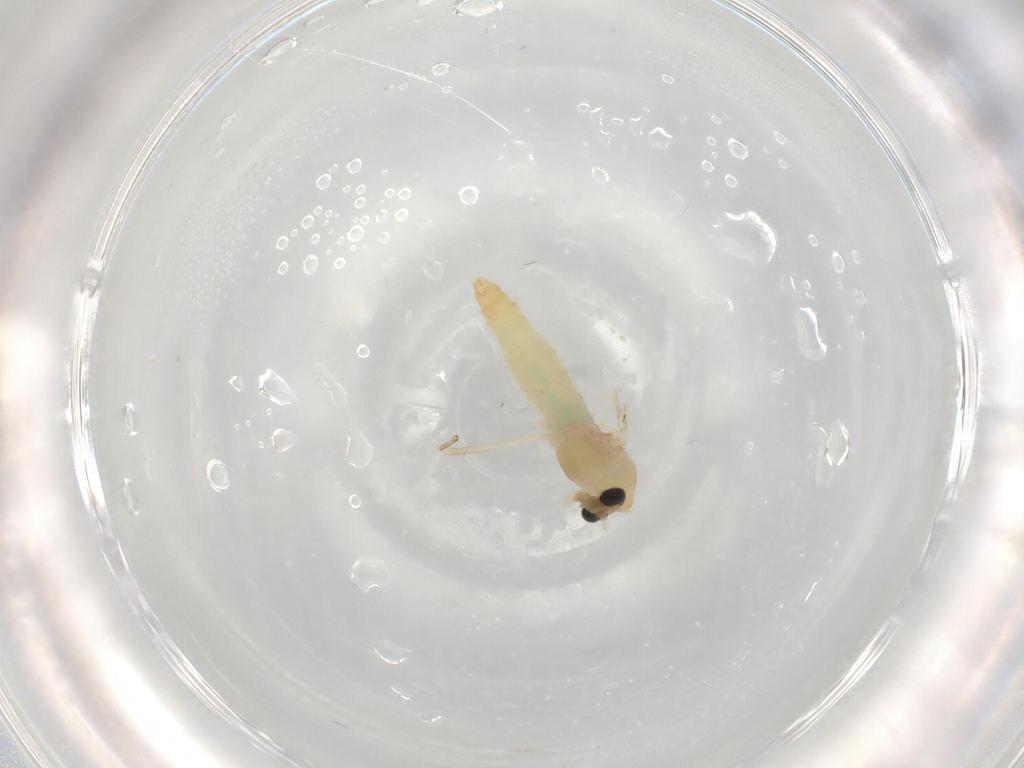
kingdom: Animalia
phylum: Arthropoda
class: Insecta
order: Diptera
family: Chironomidae
